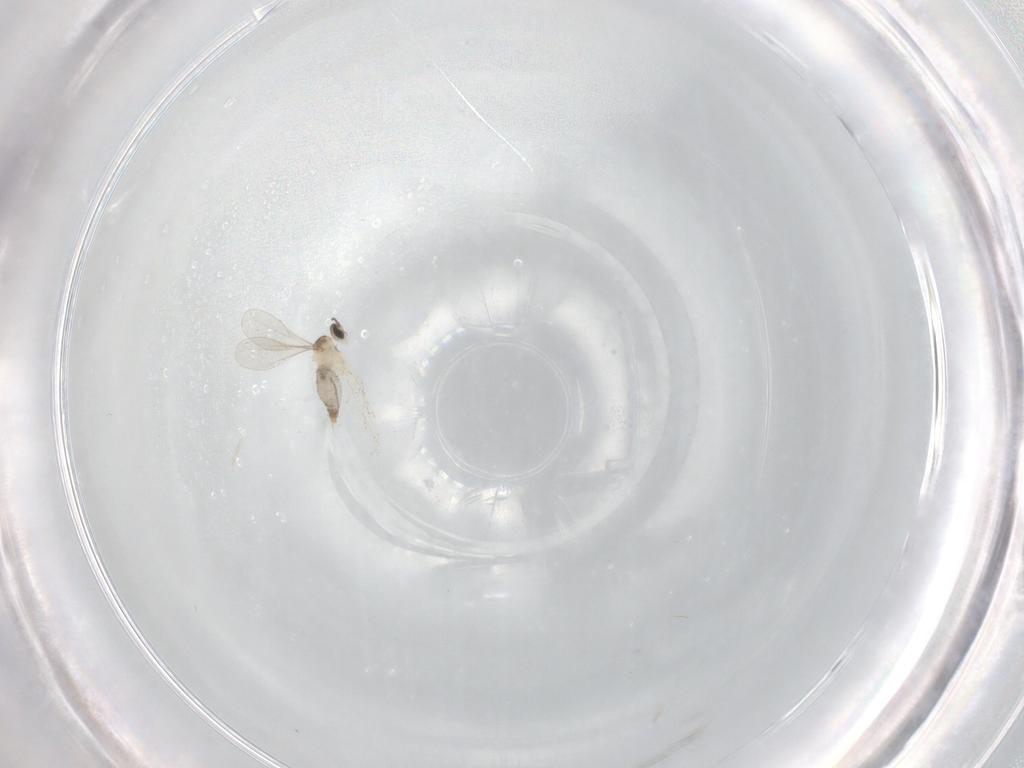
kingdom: Animalia
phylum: Arthropoda
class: Insecta
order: Diptera
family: Cecidomyiidae
